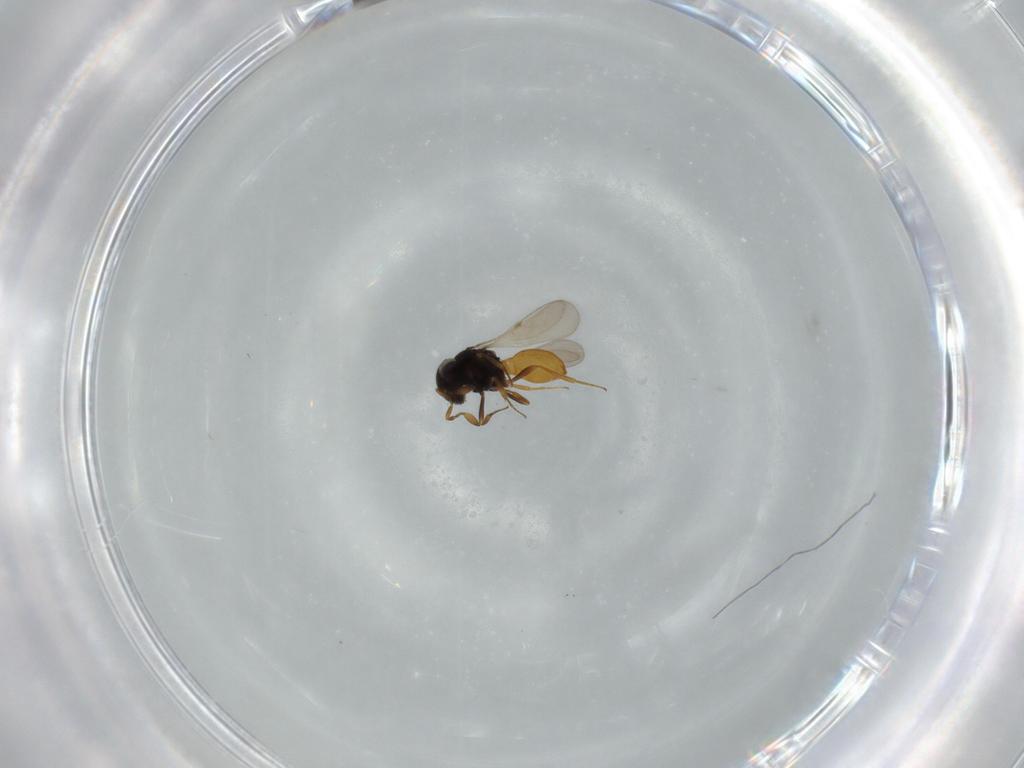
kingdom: Animalia
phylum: Arthropoda
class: Insecta
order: Hymenoptera
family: Scelionidae
